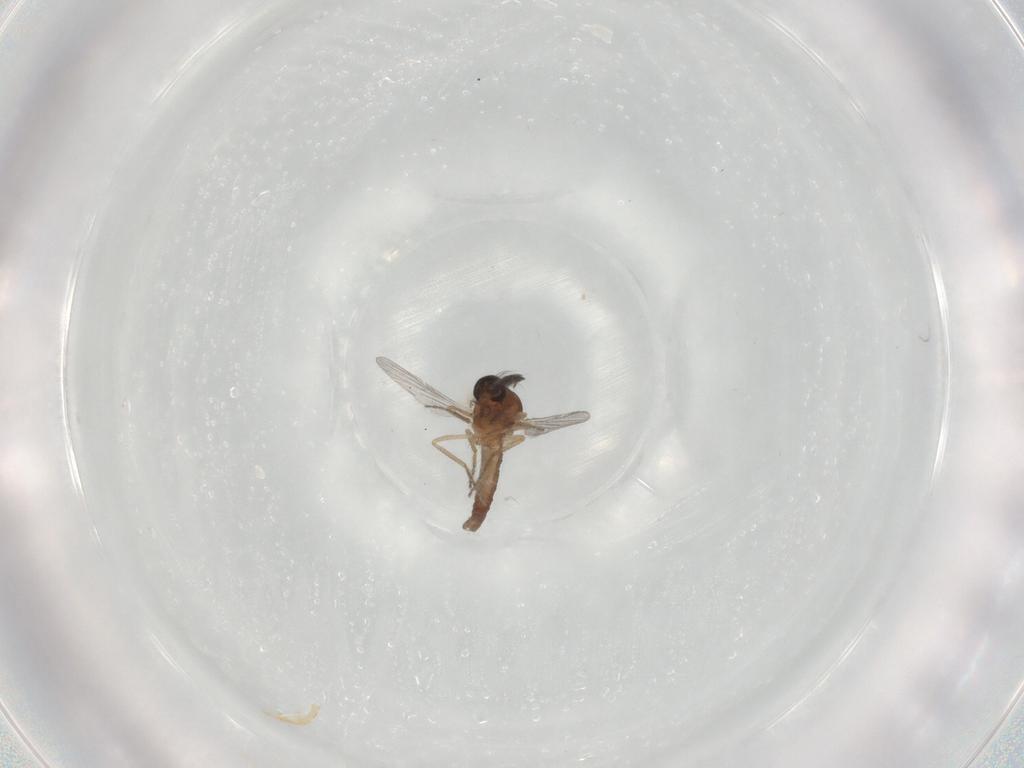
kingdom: Animalia
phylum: Arthropoda
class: Insecta
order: Diptera
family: Ceratopogonidae
